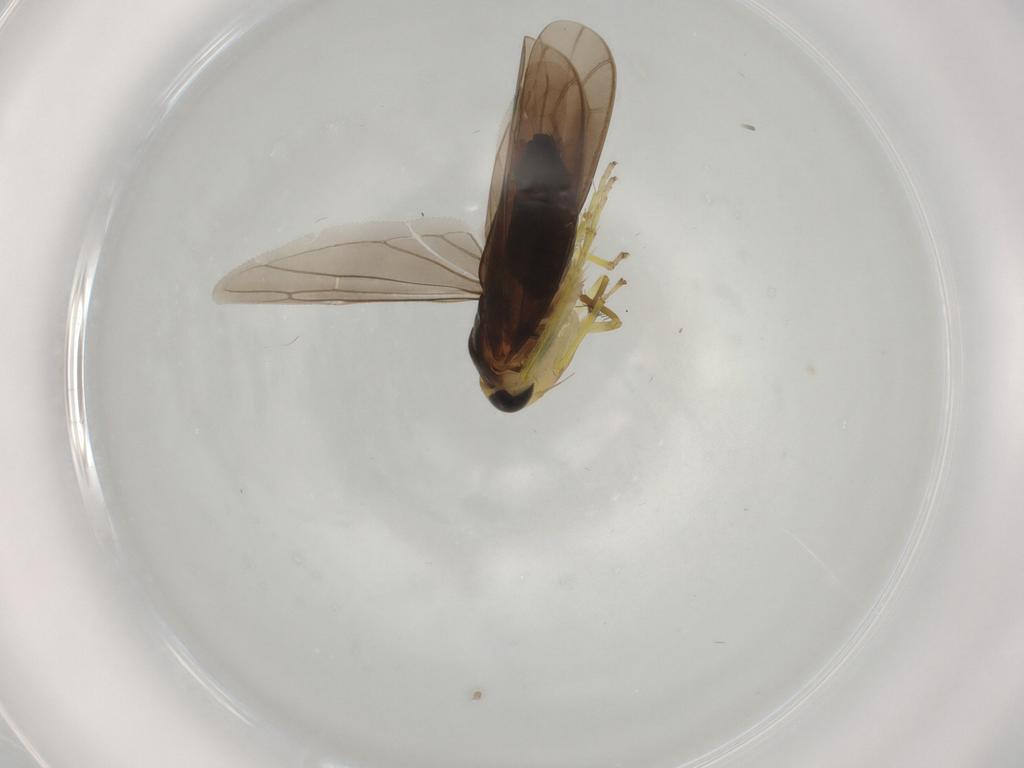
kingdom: Animalia
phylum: Arthropoda
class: Insecta
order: Hemiptera
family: Cicadellidae
